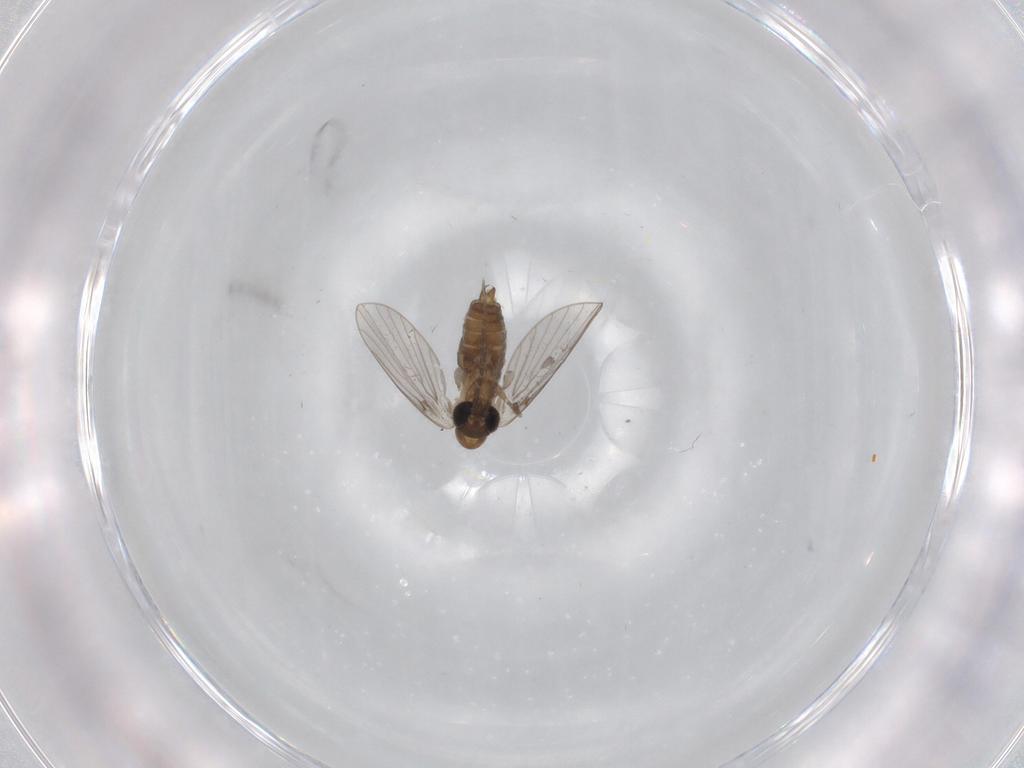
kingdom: Animalia
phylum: Arthropoda
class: Insecta
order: Diptera
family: Psychodidae
